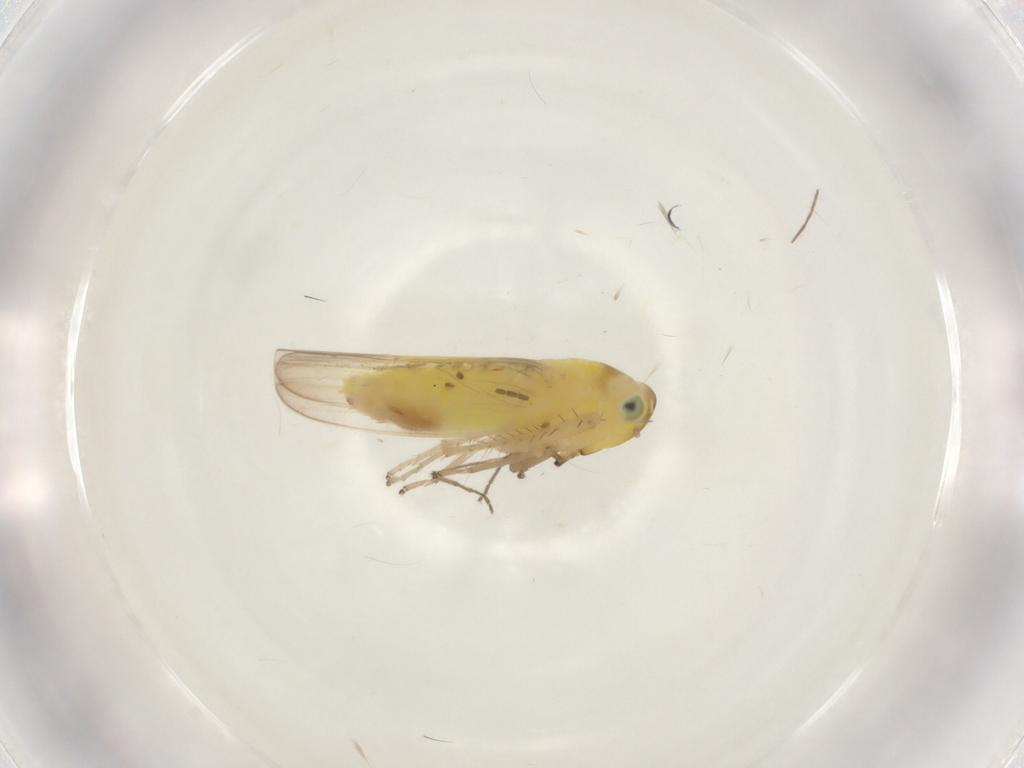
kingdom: Animalia
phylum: Arthropoda
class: Insecta
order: Hemiptera
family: Cicadellidae
